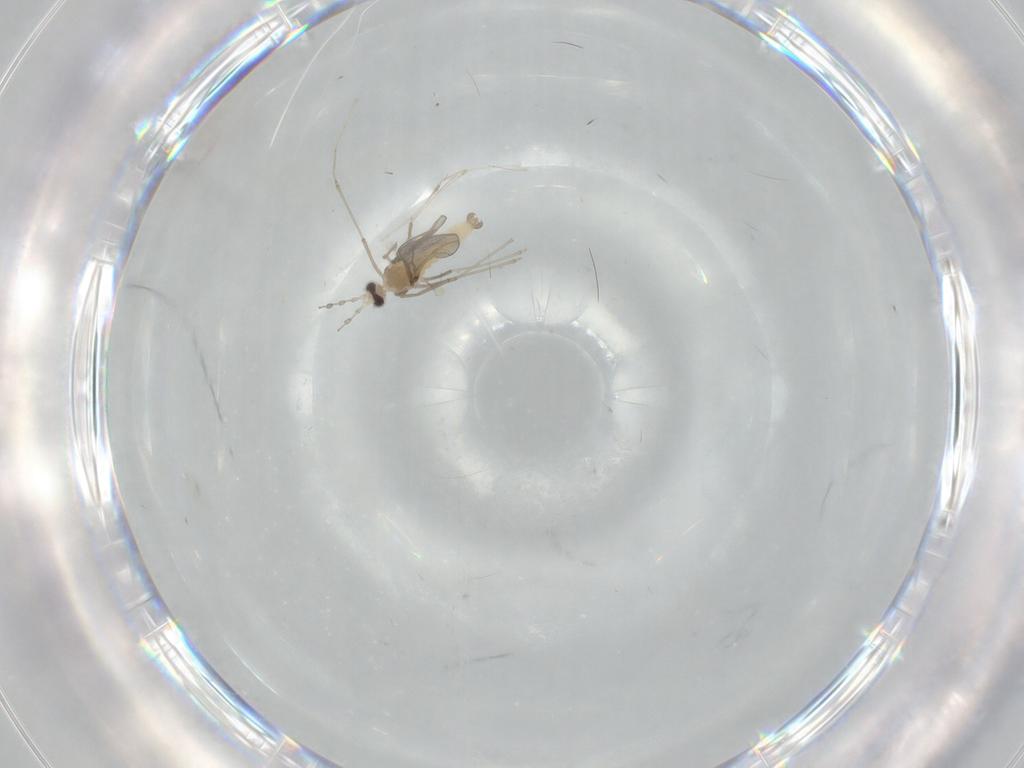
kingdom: Animalia
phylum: Arthropoda
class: Insecta
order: Diptera
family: Cecidomyiidae
